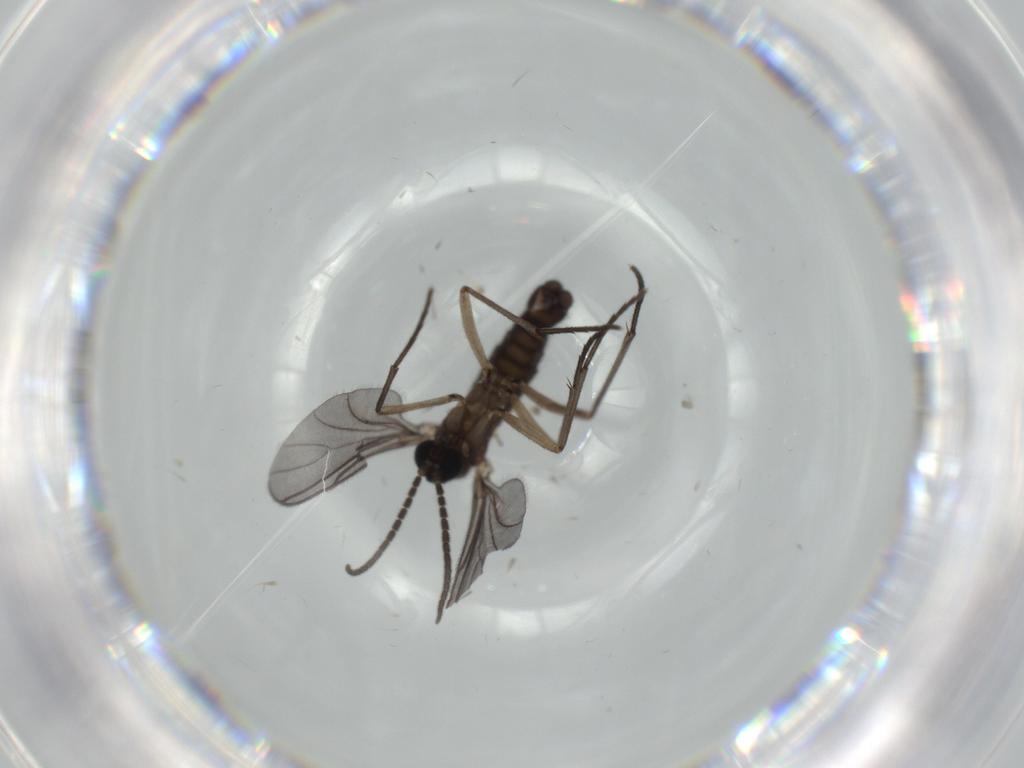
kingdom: Animalia
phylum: Arthropoda
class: Insecta
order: Diptera
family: Sciaridae
